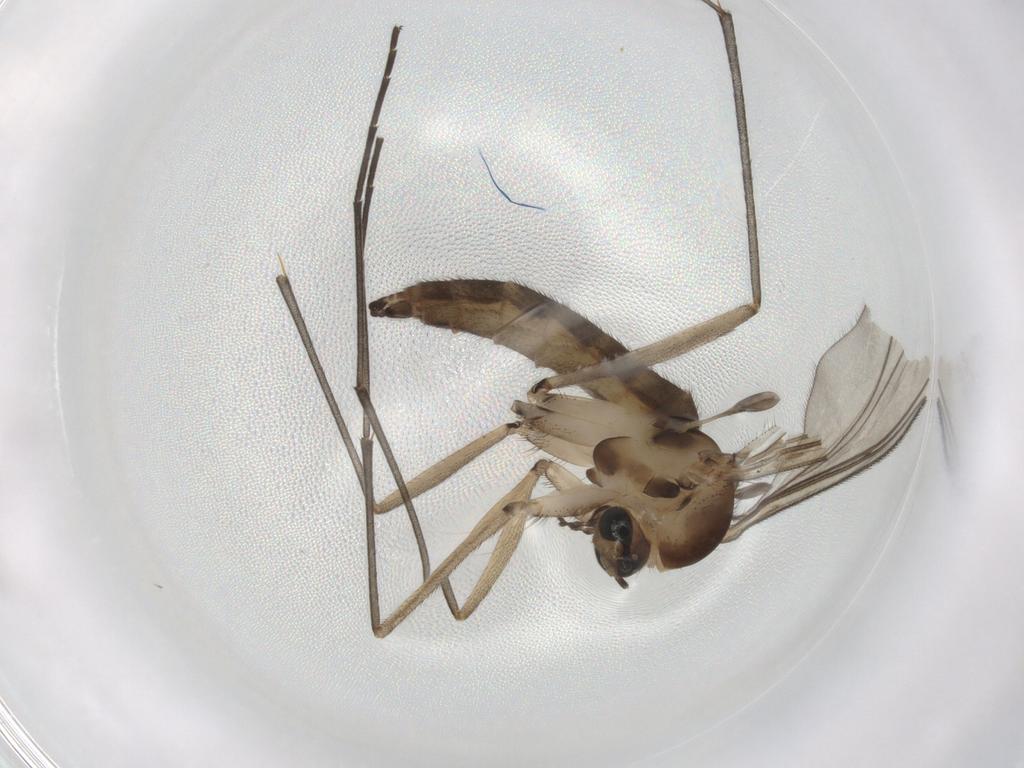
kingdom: Animalia
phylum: Arthropoda
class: Insecta
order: Diptera
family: Sciaridae
